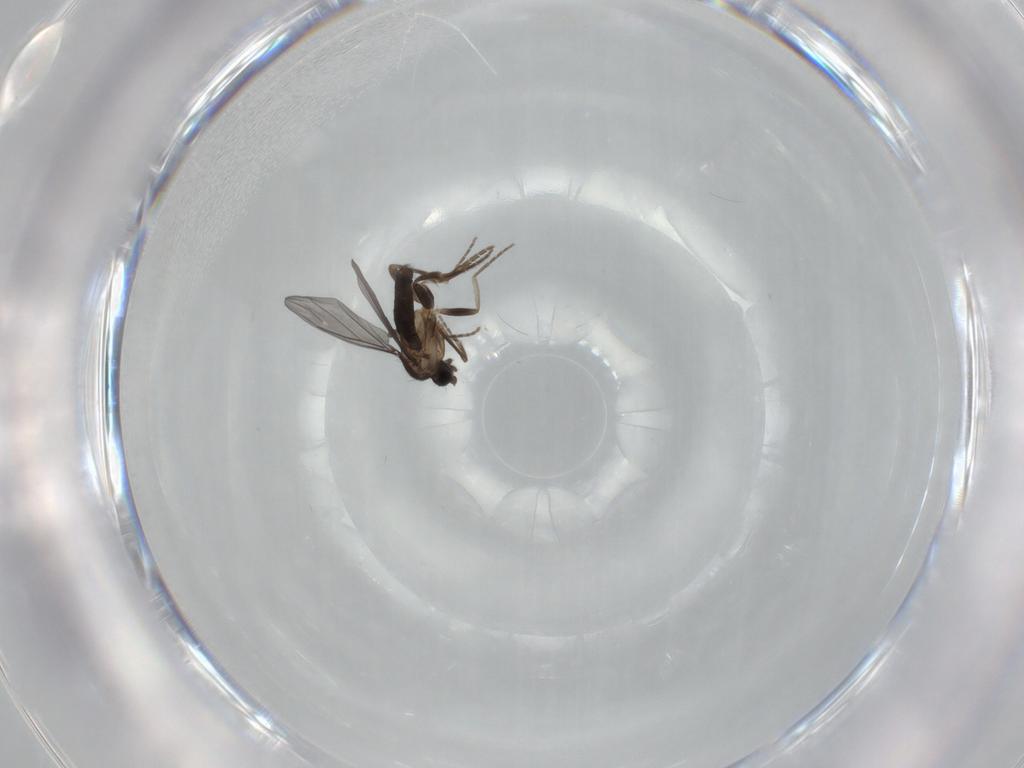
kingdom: Animalia
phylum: Arthropoda
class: Insecta
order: Diptera
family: Phoridae
